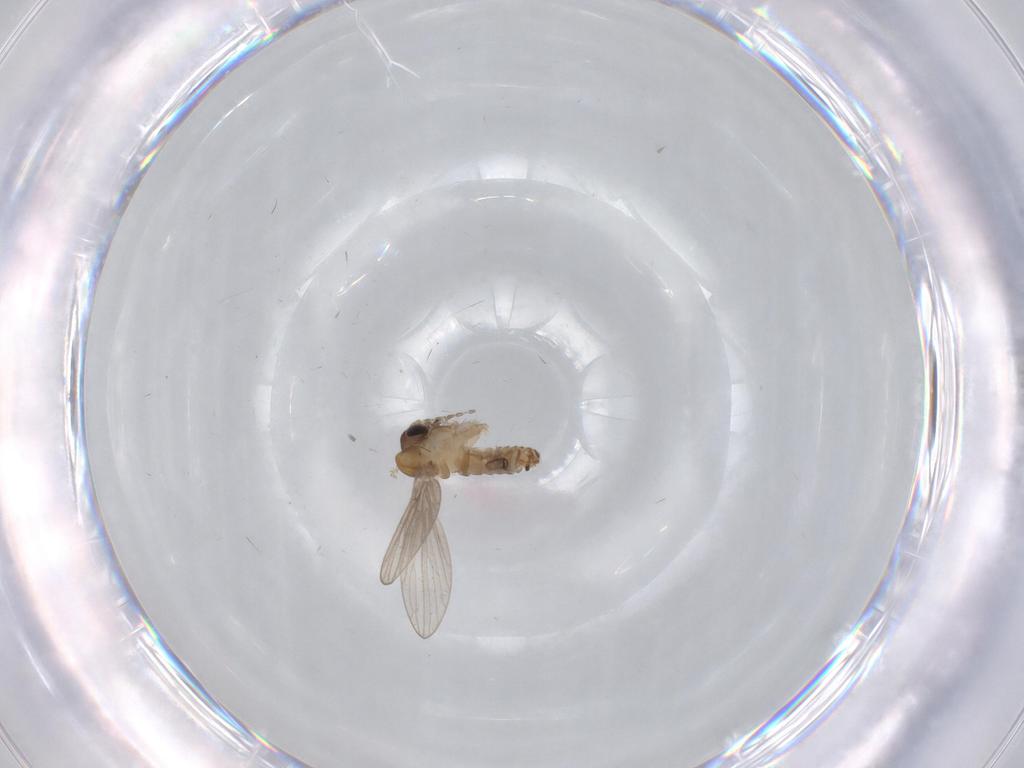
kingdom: Animalia
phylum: Arthropoda
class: Insecta
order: Diptera
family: Psychodidae
